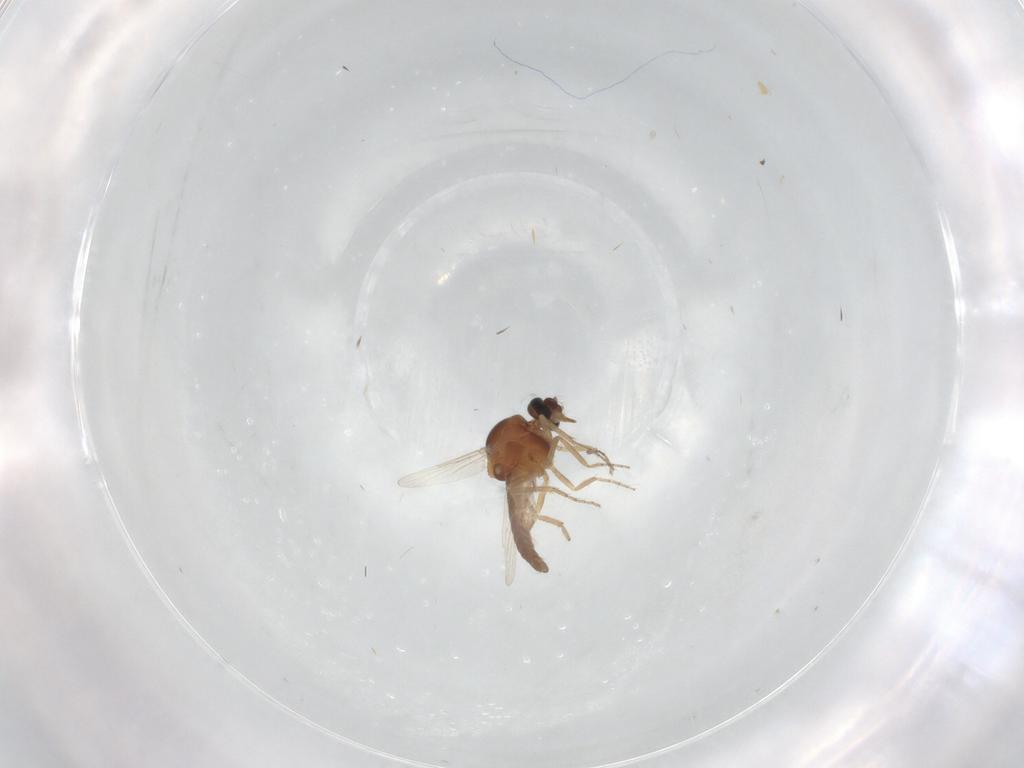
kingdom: Animalia
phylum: Arthropoda
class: Insecta
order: Diptera
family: Ceratopogonidae
